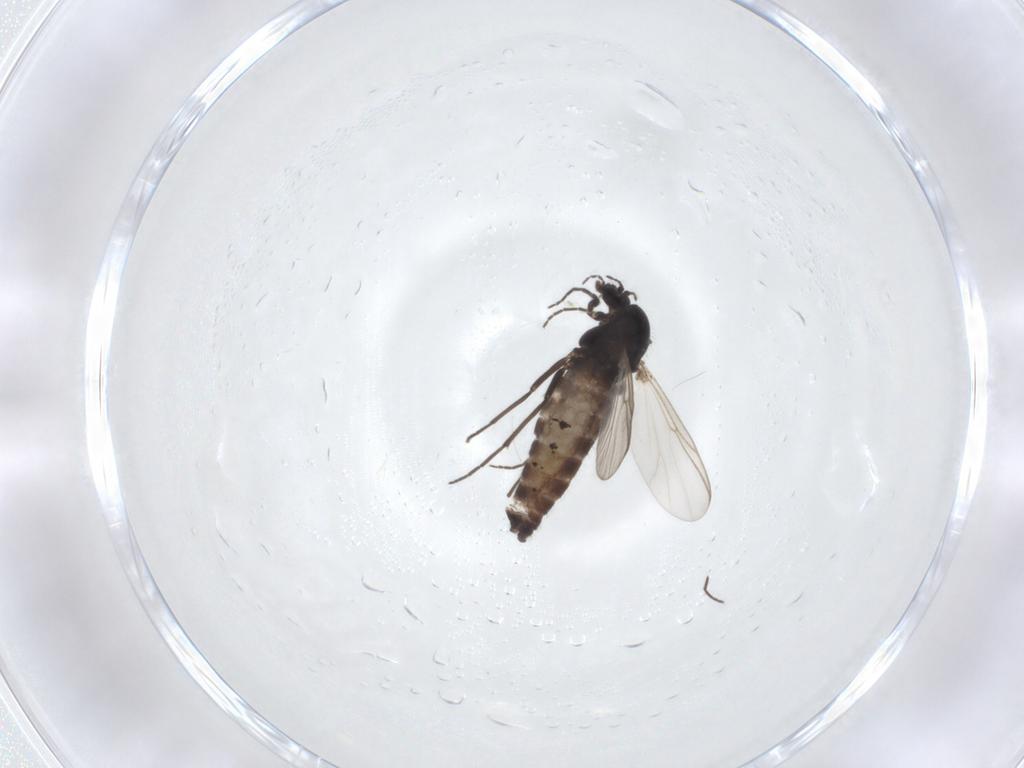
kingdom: Animalia
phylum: Arthropoda
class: Insecta
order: Diptera
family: Chironomidae
